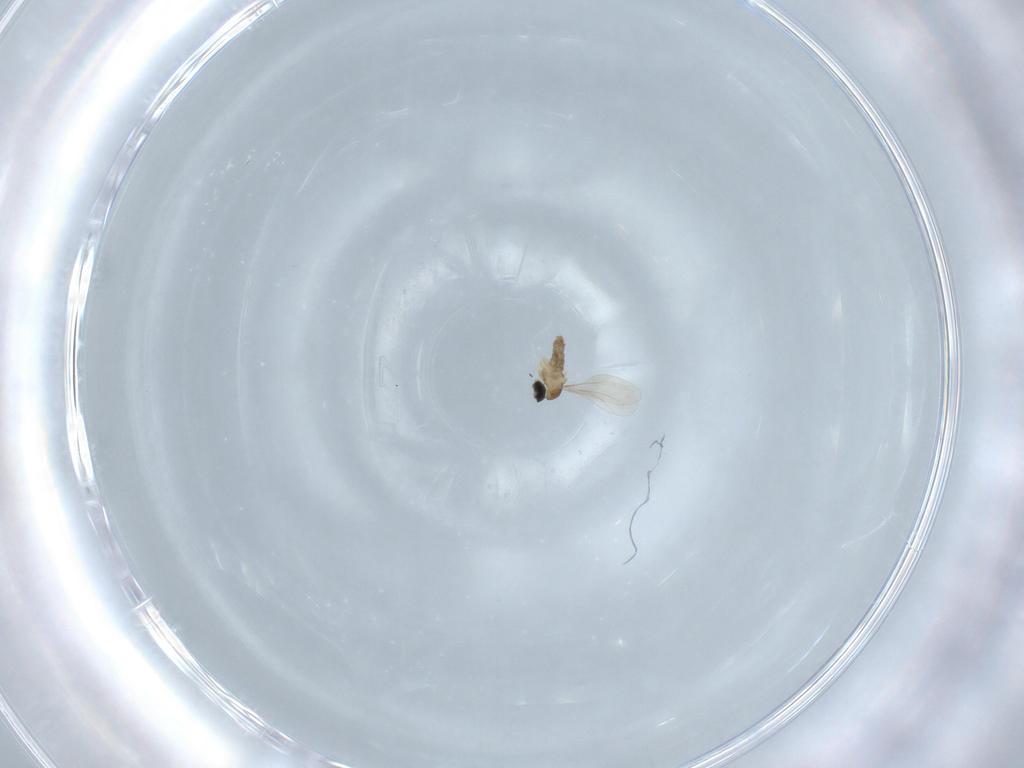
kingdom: Animalia
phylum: Arthropoda
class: Insecta
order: Diptera
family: Cecidomyiidae
